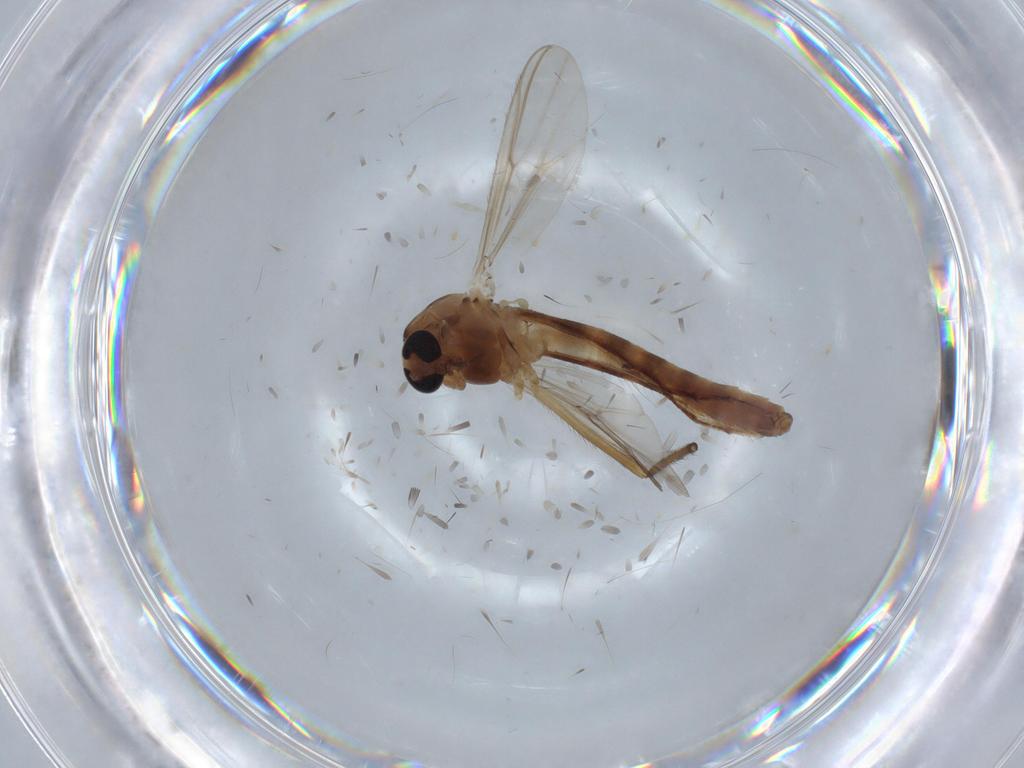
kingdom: Animalia
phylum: Arthropoda
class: Insecta
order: Diptera
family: Chironomidae
